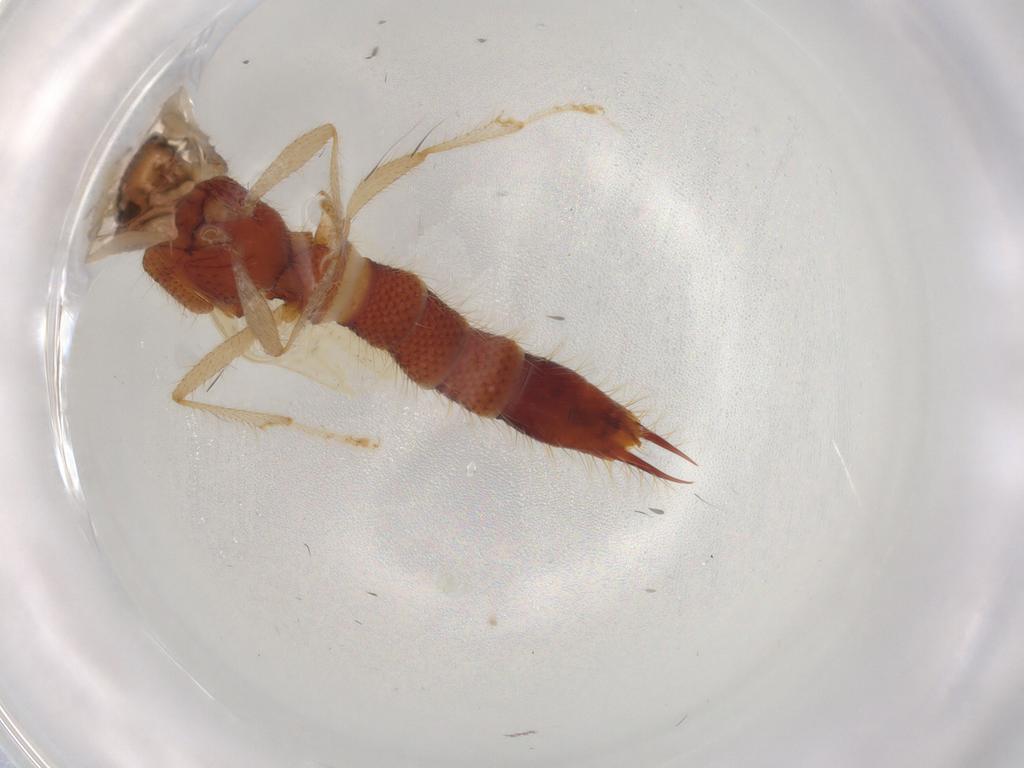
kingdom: Animalia
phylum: Arthropoda
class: Insecta
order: Coleoptera
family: Staphylinidae
